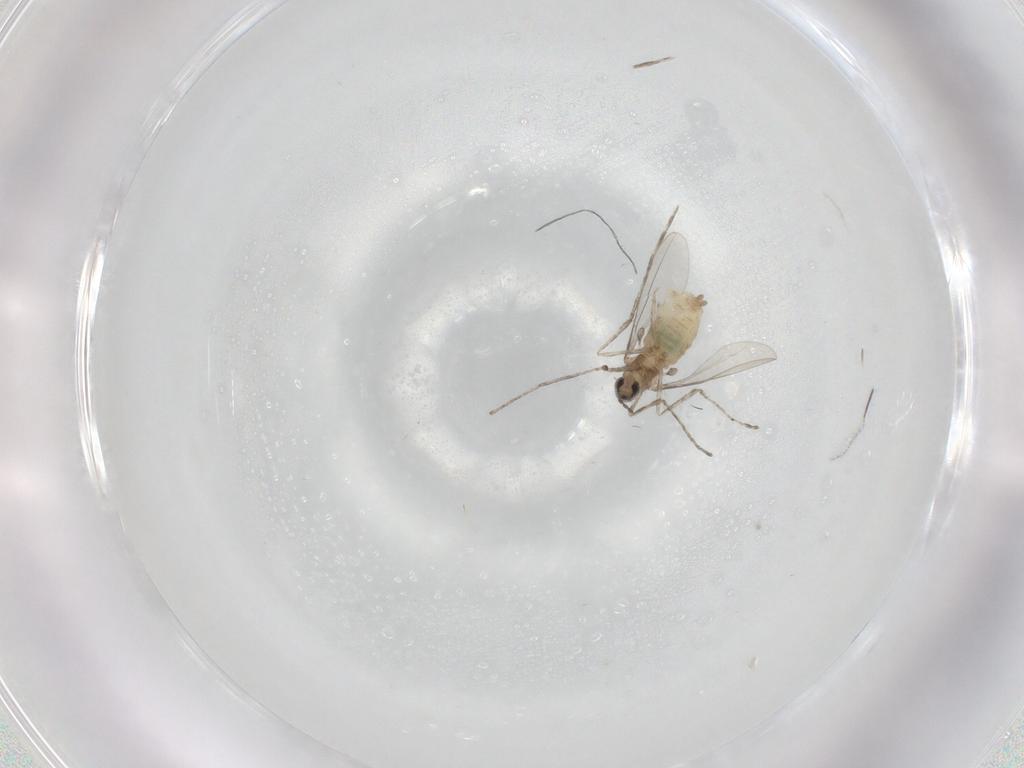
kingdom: Animalia
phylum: Arthropoda
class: Insecta
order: Diptera
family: Cecidomyiidae
